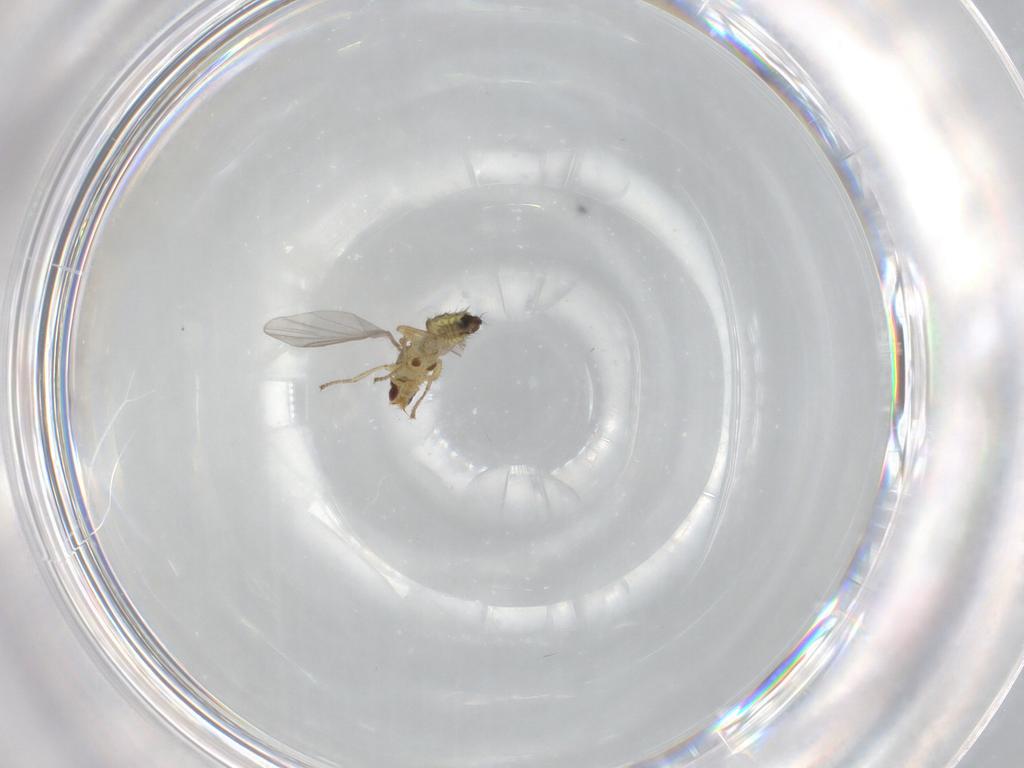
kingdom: Animalia
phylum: Arthropoda
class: Insecta
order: Diptera
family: Agromyzidae
